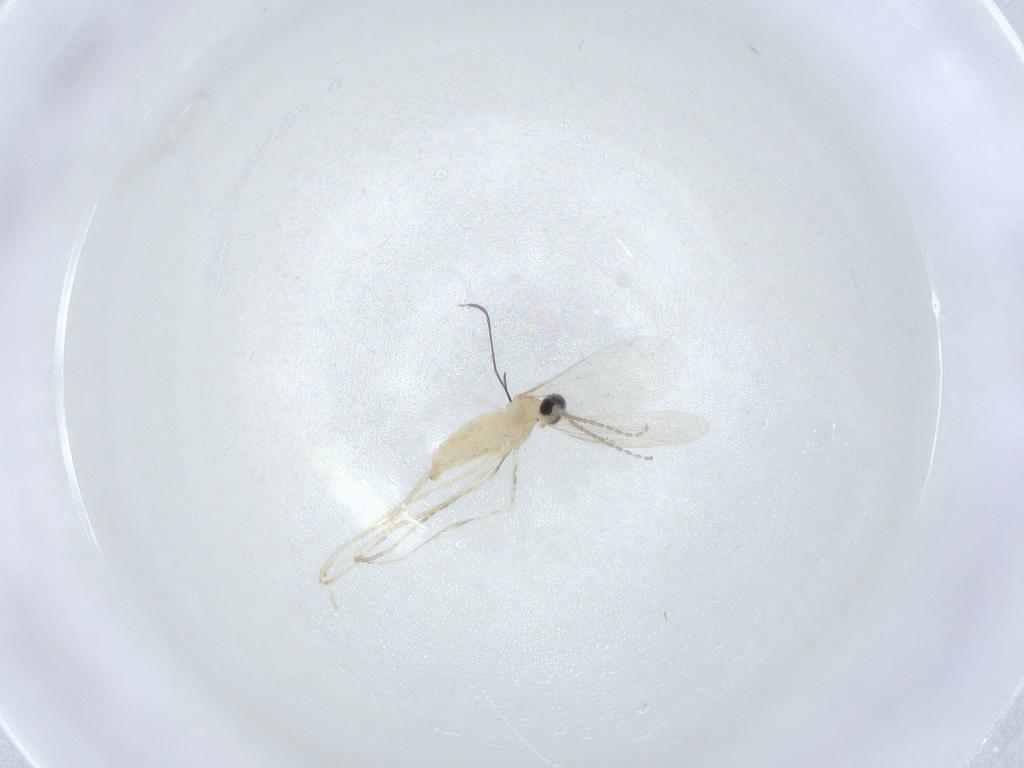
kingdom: Animalia
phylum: Arthropoda
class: Insecta
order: Diptera
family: Cecidomyiidae
